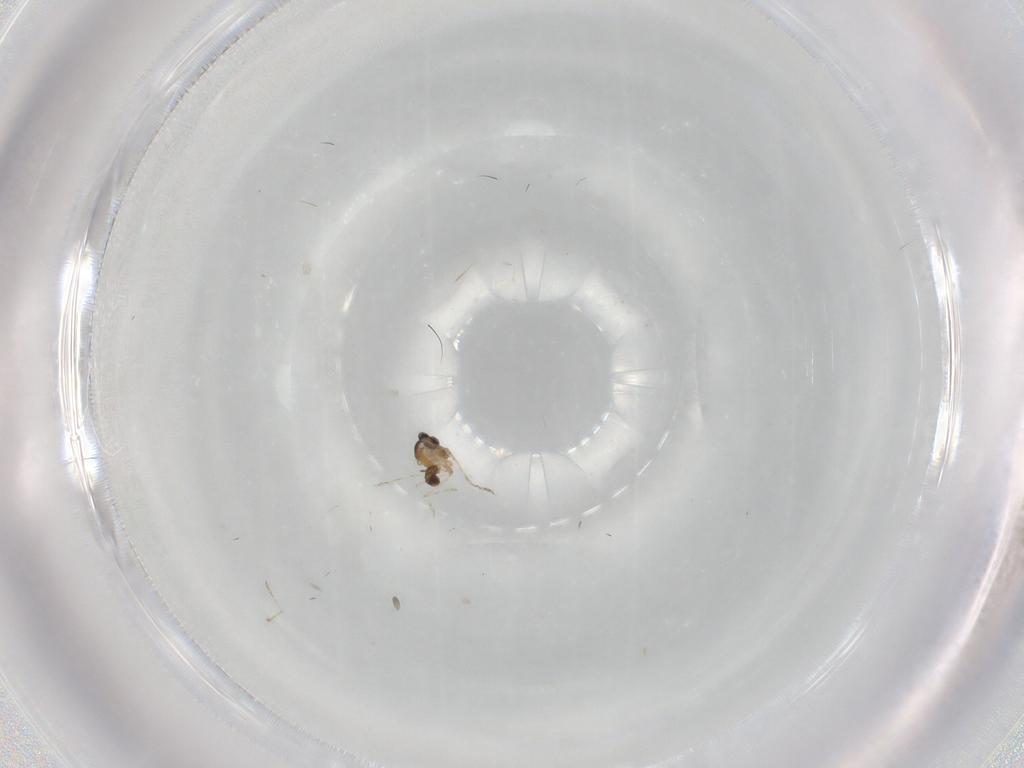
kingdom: Animalia
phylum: Arthropoda
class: Insecta
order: Diptera
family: Cecidomyiidae
